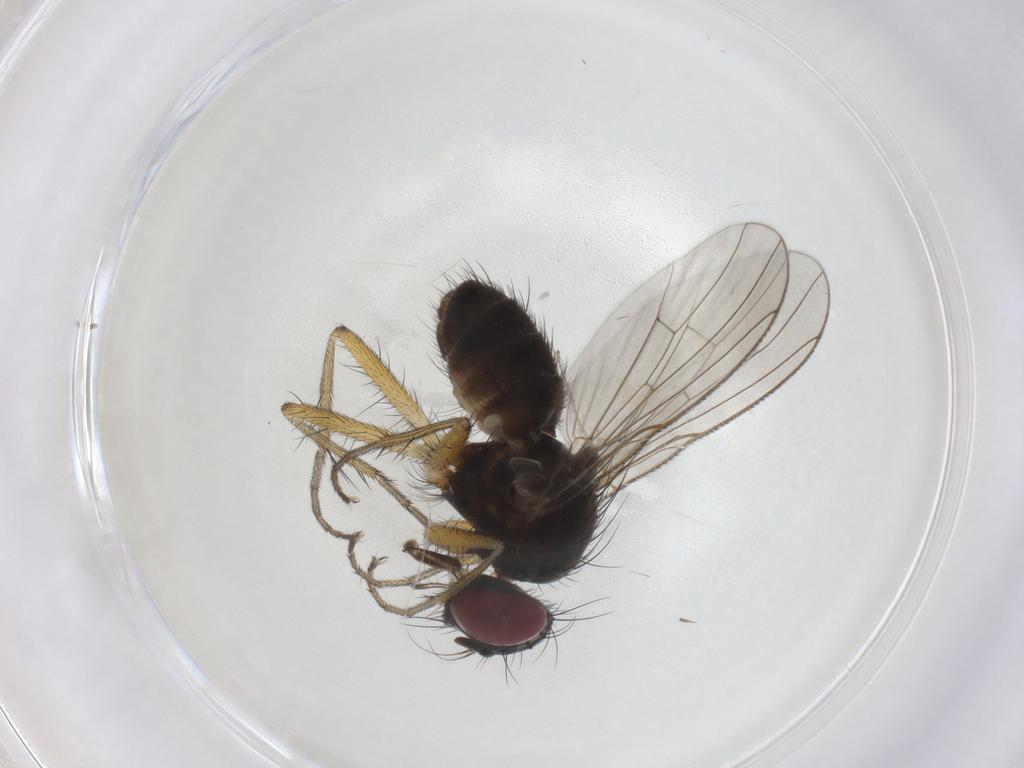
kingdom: Animalia
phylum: Arthropoda
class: Insecta
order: Diptera
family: Muscidae
